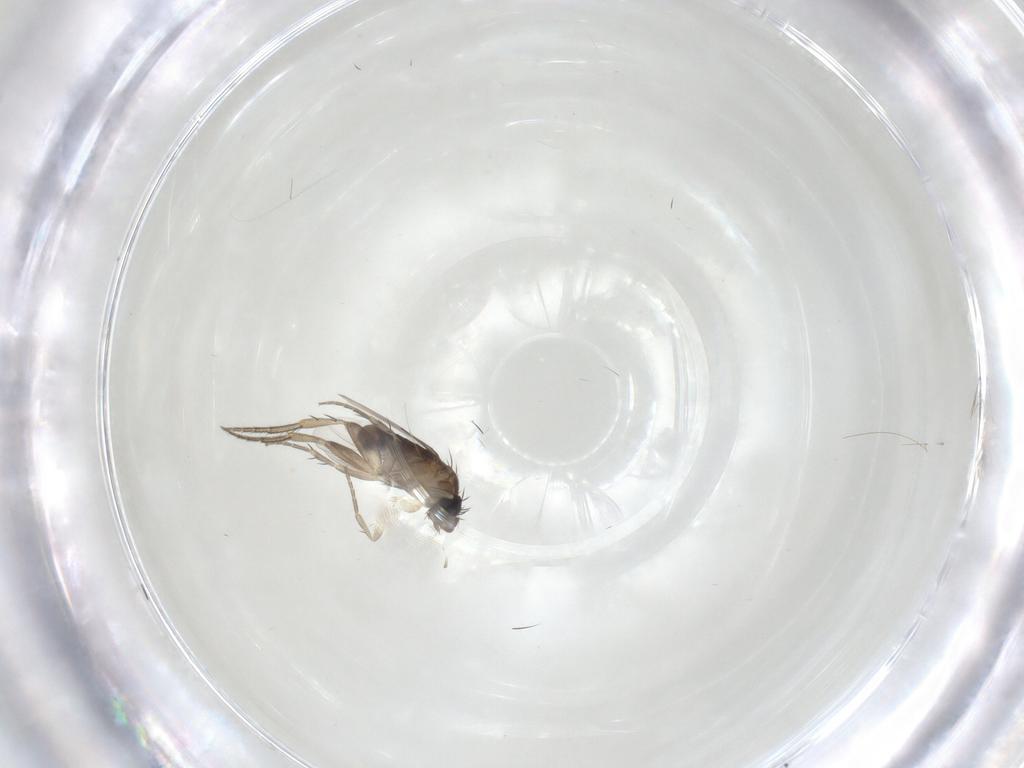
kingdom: Animalia
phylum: Arthropoda
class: Insecta
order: Diptera
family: Phoridae
